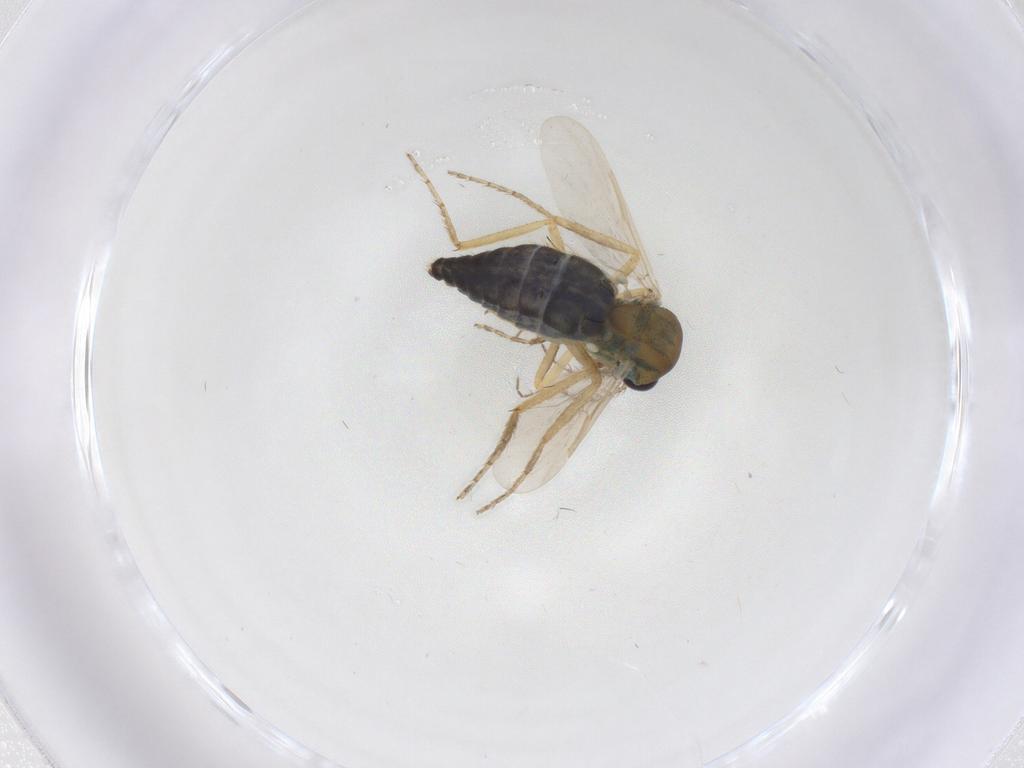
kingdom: Animalia
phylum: Arthropoda
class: Insecta
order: Diptera
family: Ceratopogonidae
